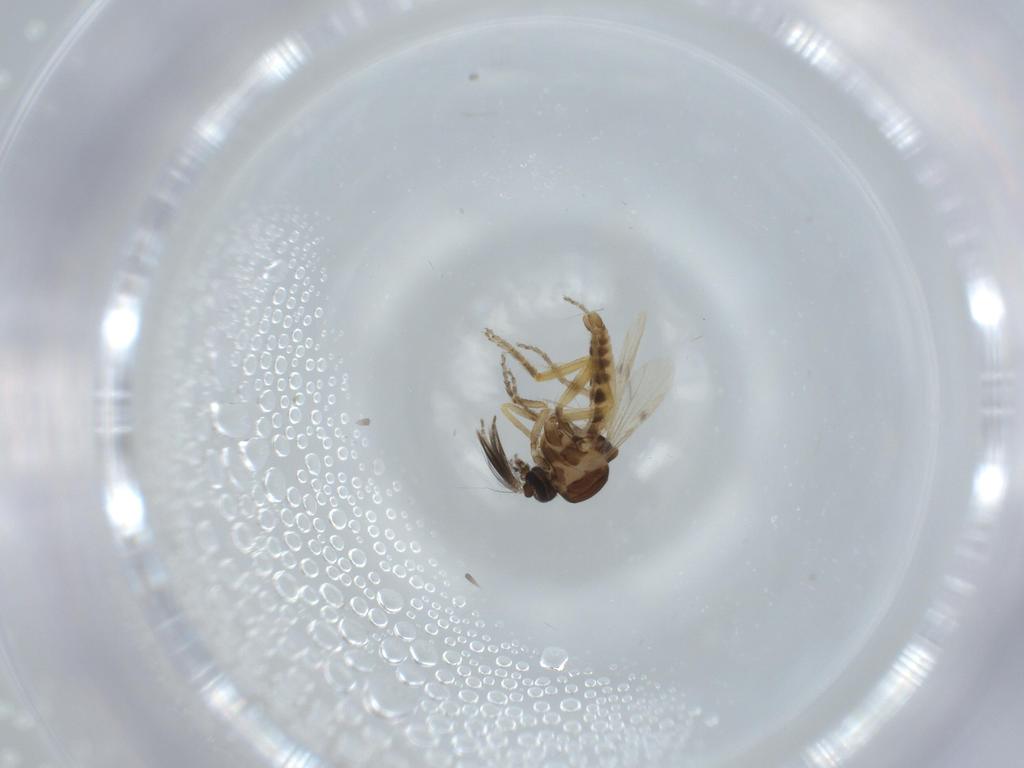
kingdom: Animalia
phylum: Arthropoda
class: Insecta
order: Diptera
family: Ceratopogonidae
